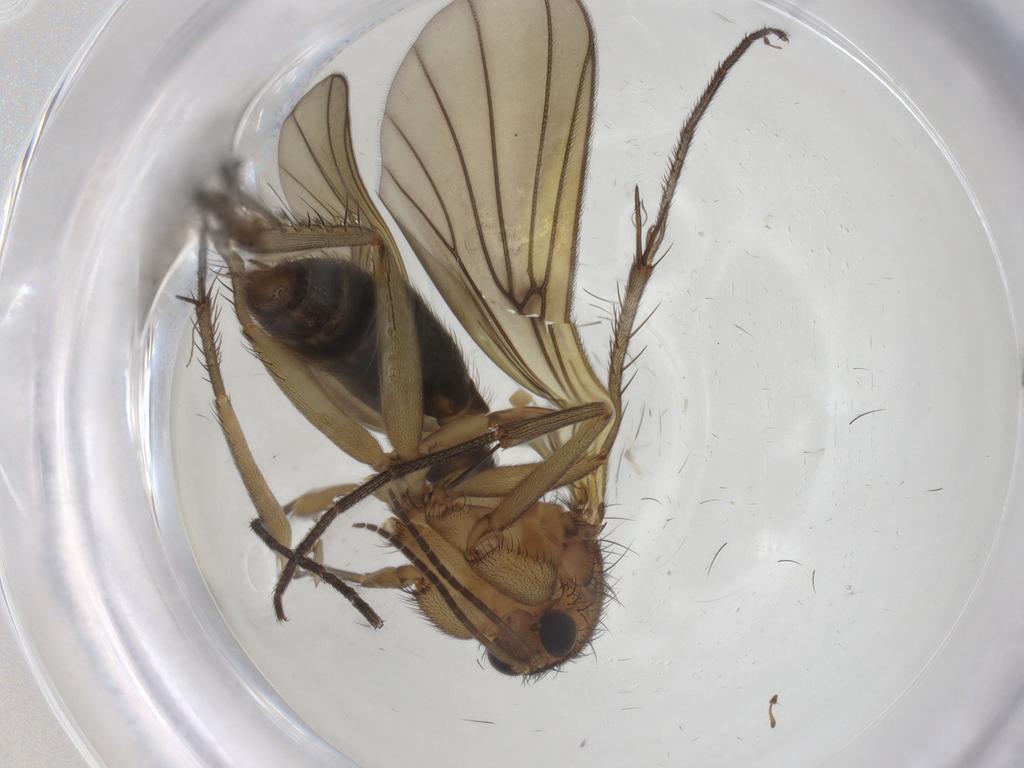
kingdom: Animalia
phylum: Arthropoda
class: Insecta
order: Diptera
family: Mycetophilidae
